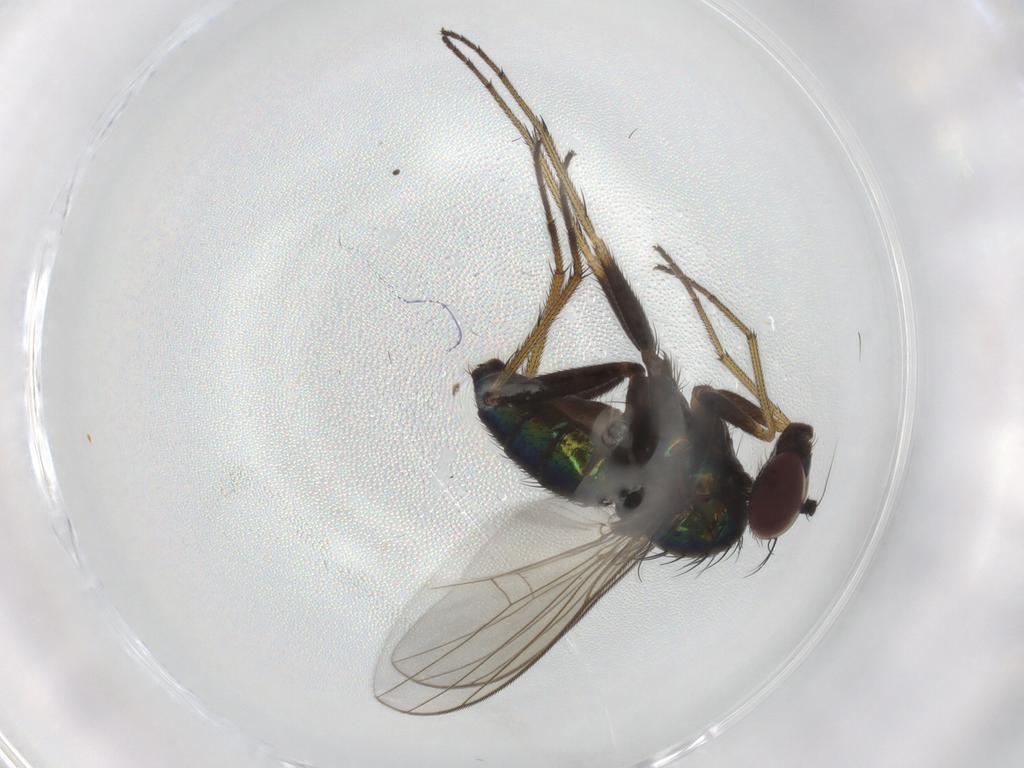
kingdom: Animalia
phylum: Arthropoda
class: Insecta
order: Diptera
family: Dolichopodidae
